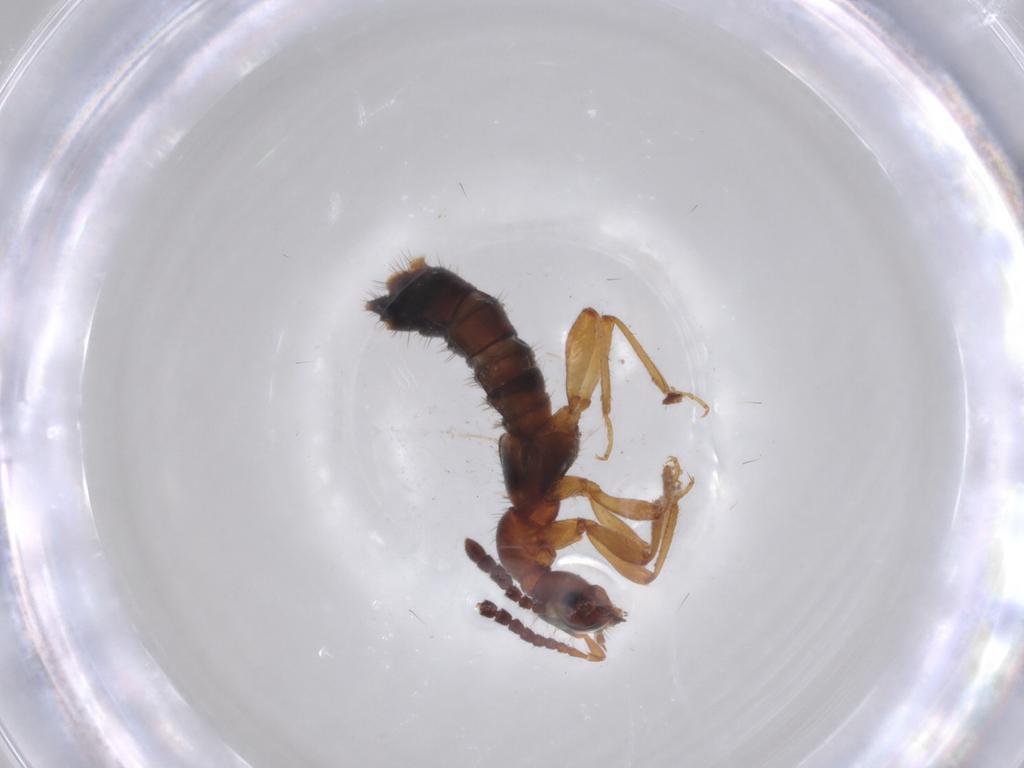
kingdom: Animalia
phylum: Arthropoda
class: Insecta
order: Coleoptera
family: Staphylinidae
